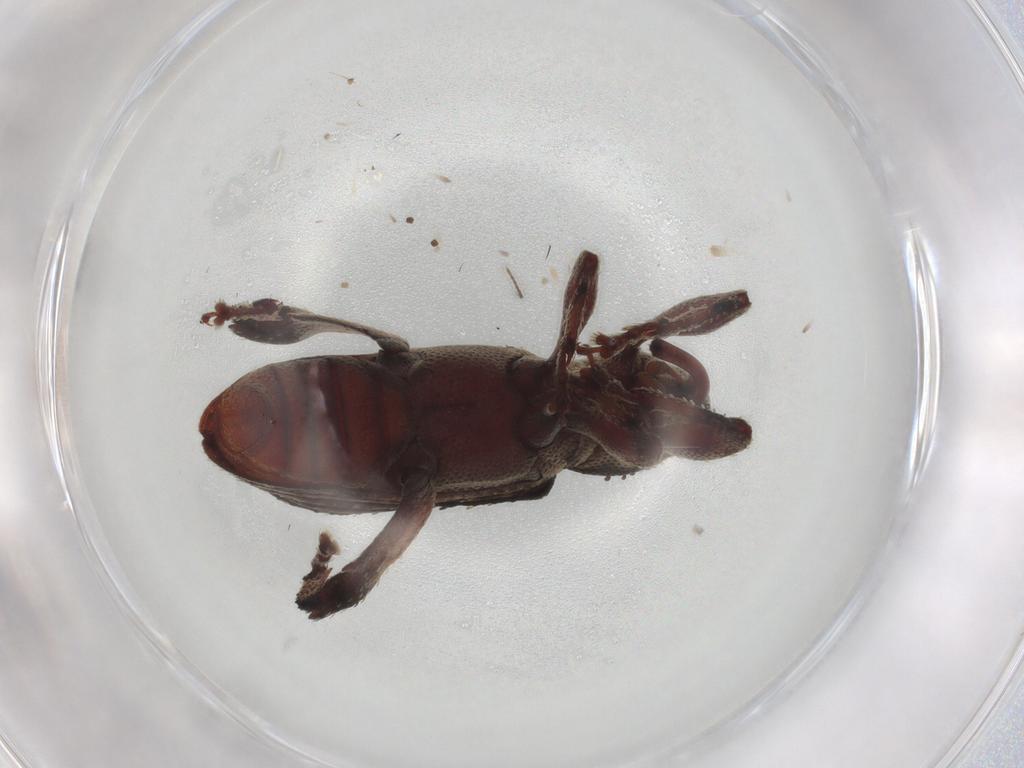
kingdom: Animalia
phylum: Arthropoda
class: Insecta
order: Coleoptera
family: Curculionidae
